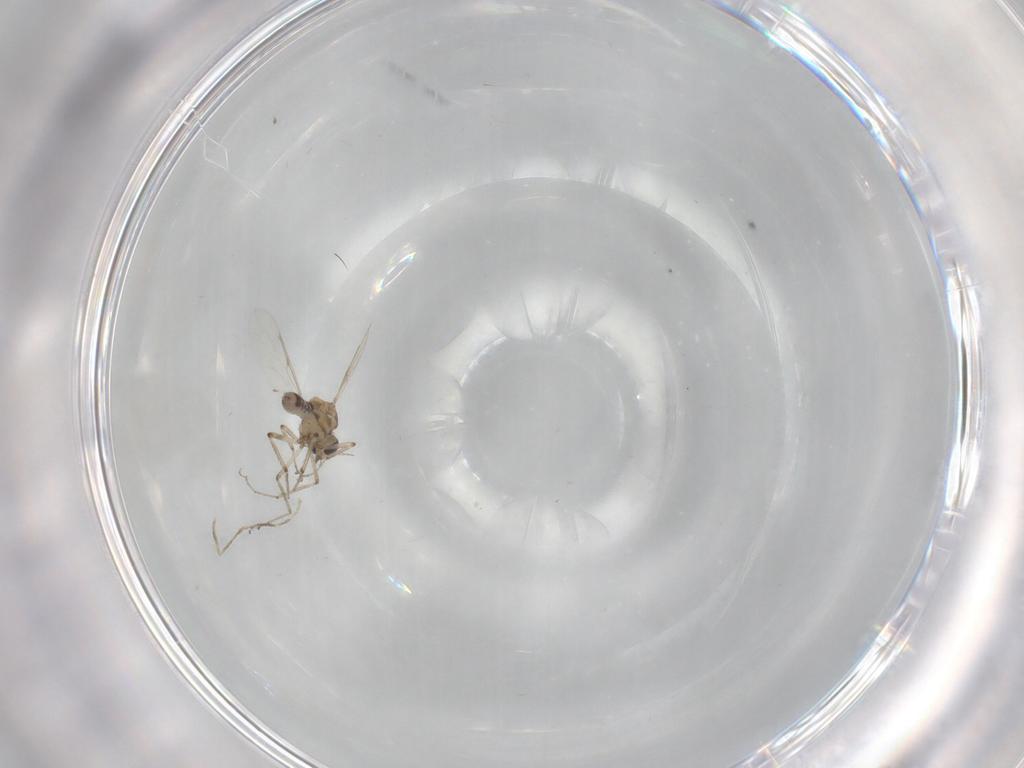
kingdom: Animalia
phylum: Arthropoda
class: Insecta
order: Diptera
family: Ceratopogonidae
